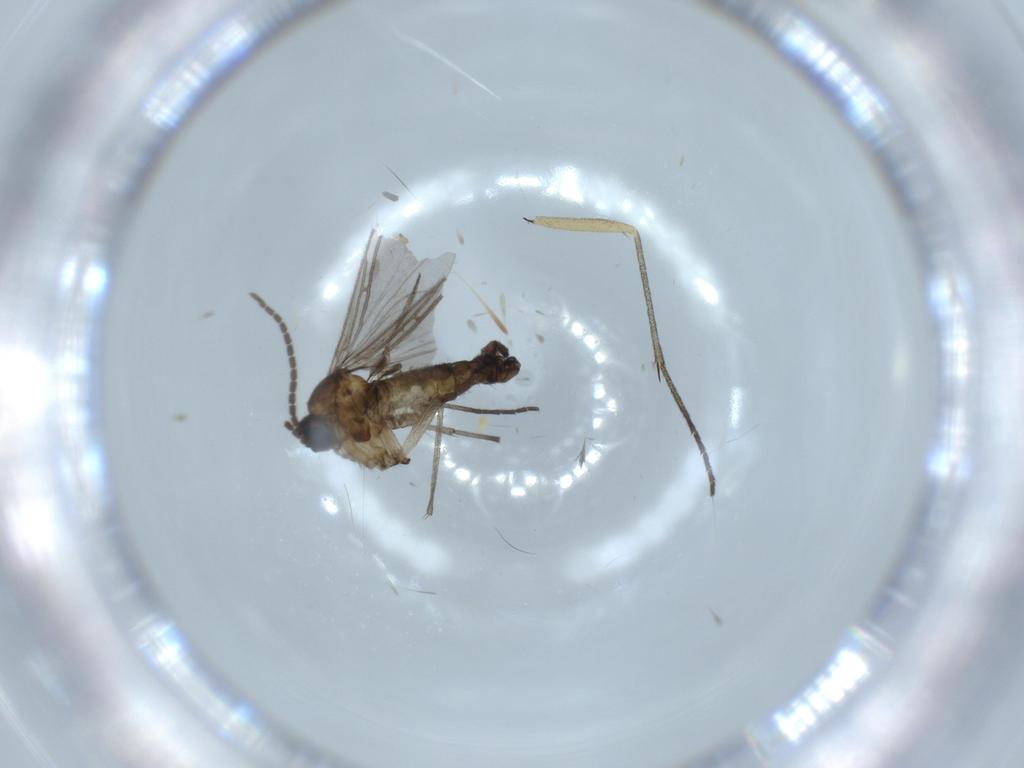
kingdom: Animalia
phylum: Arthropoda
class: Insecta
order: Diptera
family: Sciaridae
